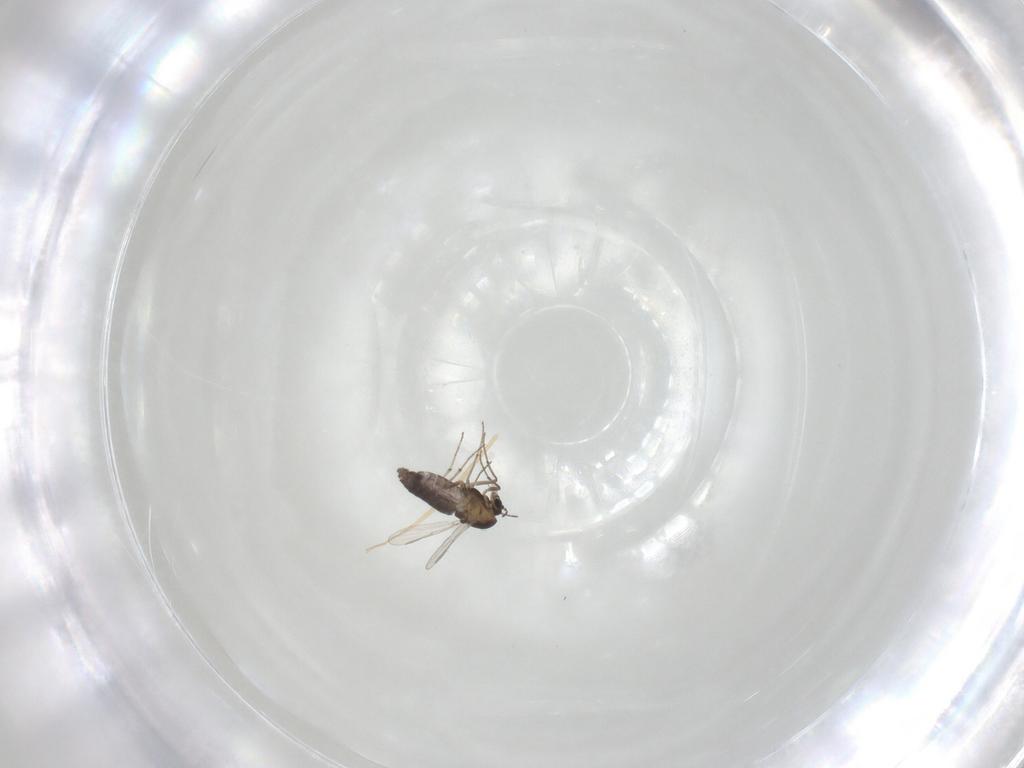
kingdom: Animalia
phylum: Arthropoda
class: Insecta
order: Diptera
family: Chironomidae
